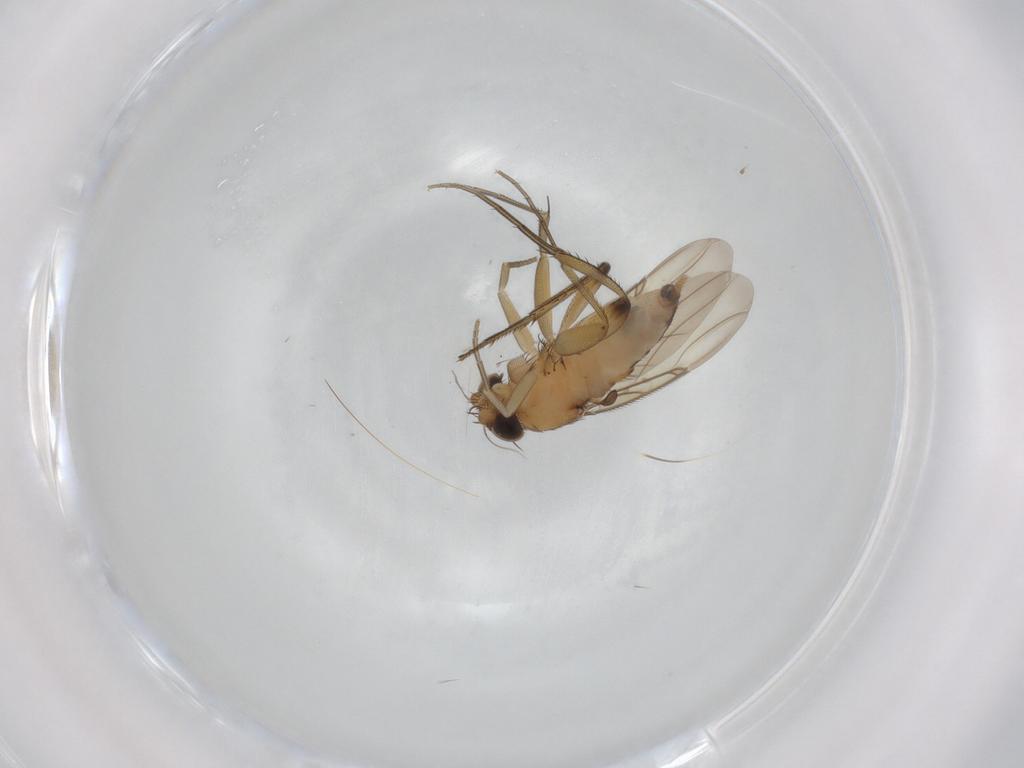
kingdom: Animalia
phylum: Arthropoda
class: Insecta
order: Diptera
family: Phoridae
